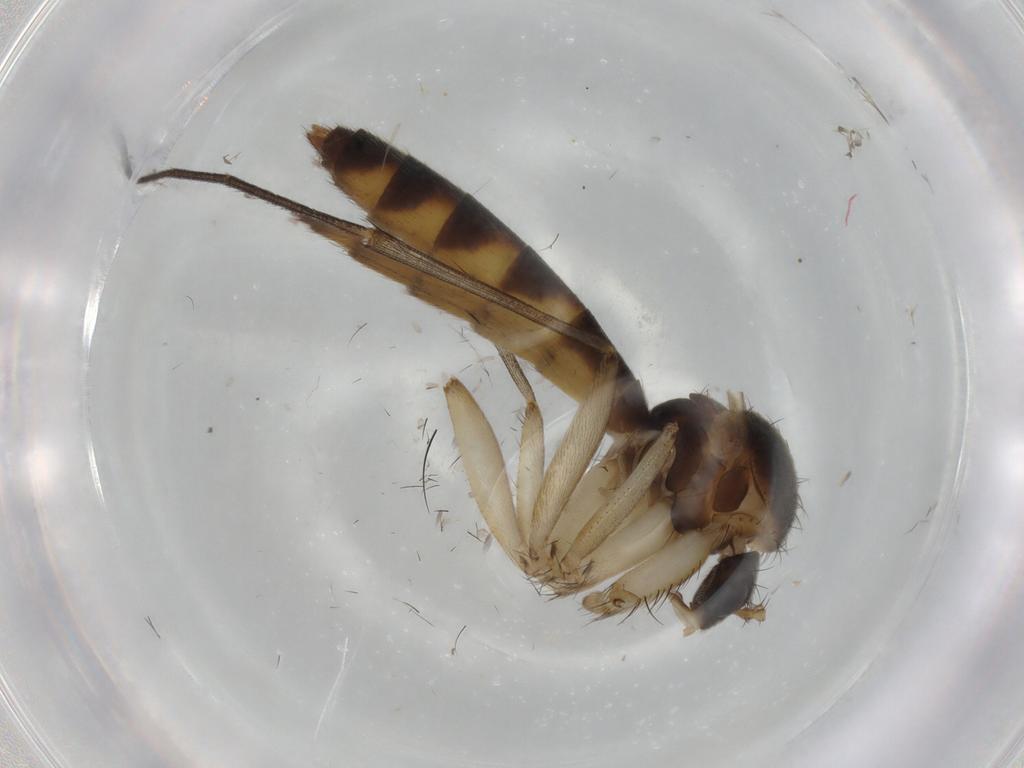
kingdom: Animalia
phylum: Arthropoda
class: Insecta
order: Diptera
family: Mycetophilidae
